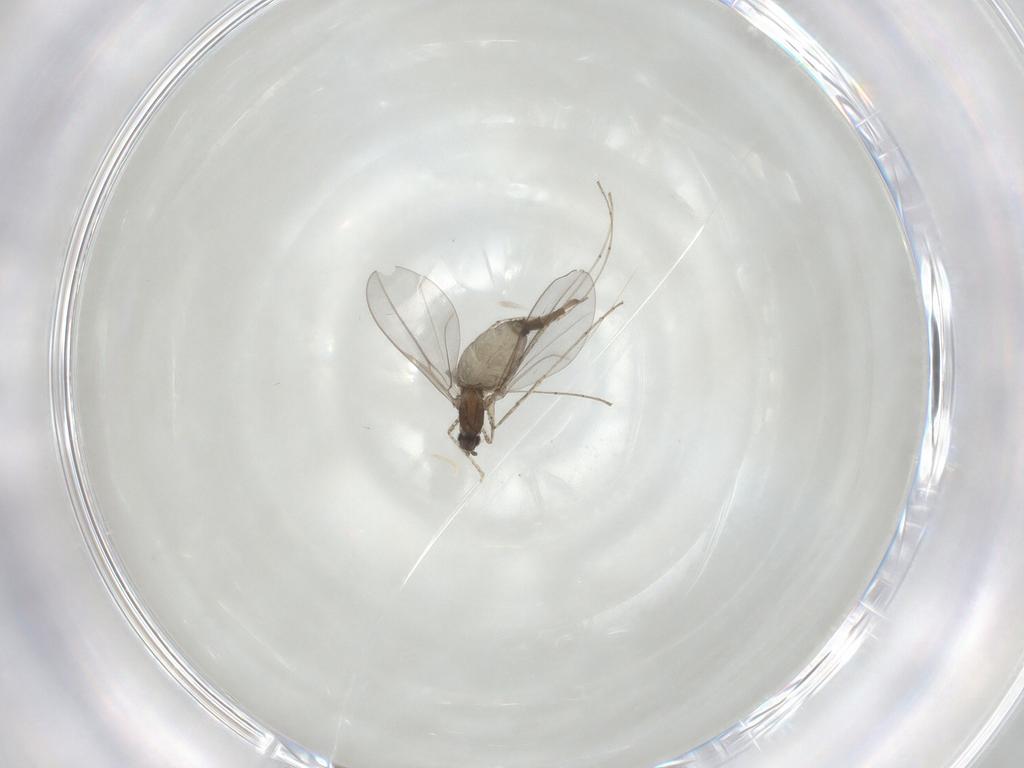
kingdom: Animalia
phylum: Arthropoda
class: Insecta
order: Diptera
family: Cecidomyiidae
